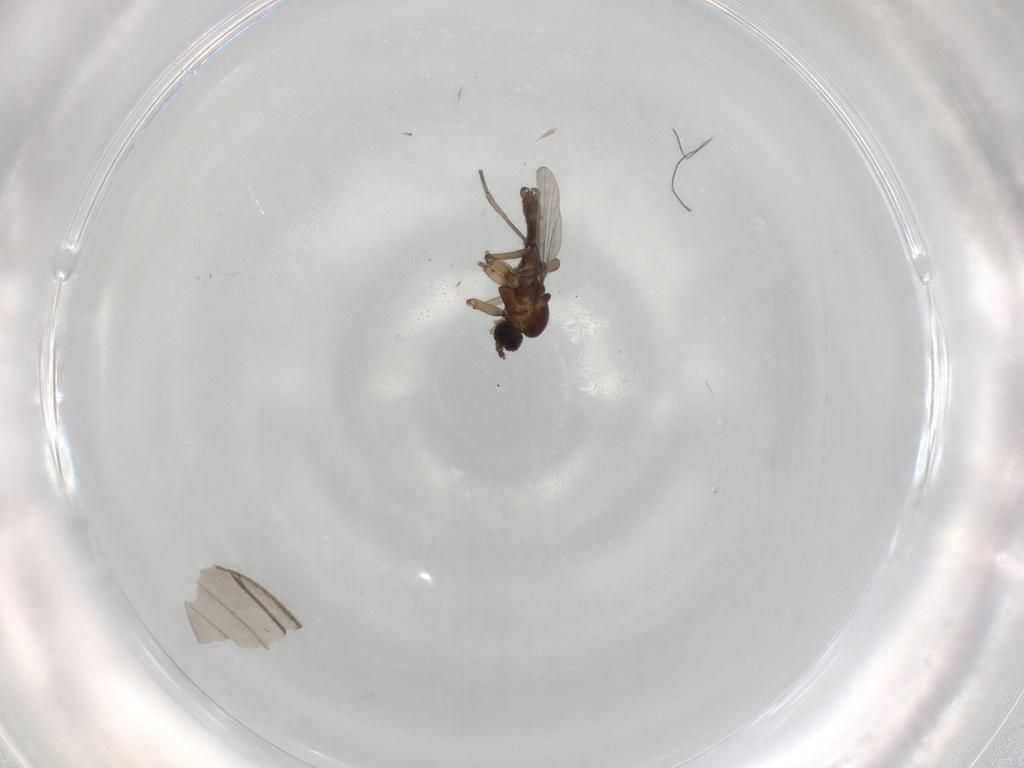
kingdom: Animalia
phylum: Arthropoda
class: Insecta
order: Diptera
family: Sciaridae
